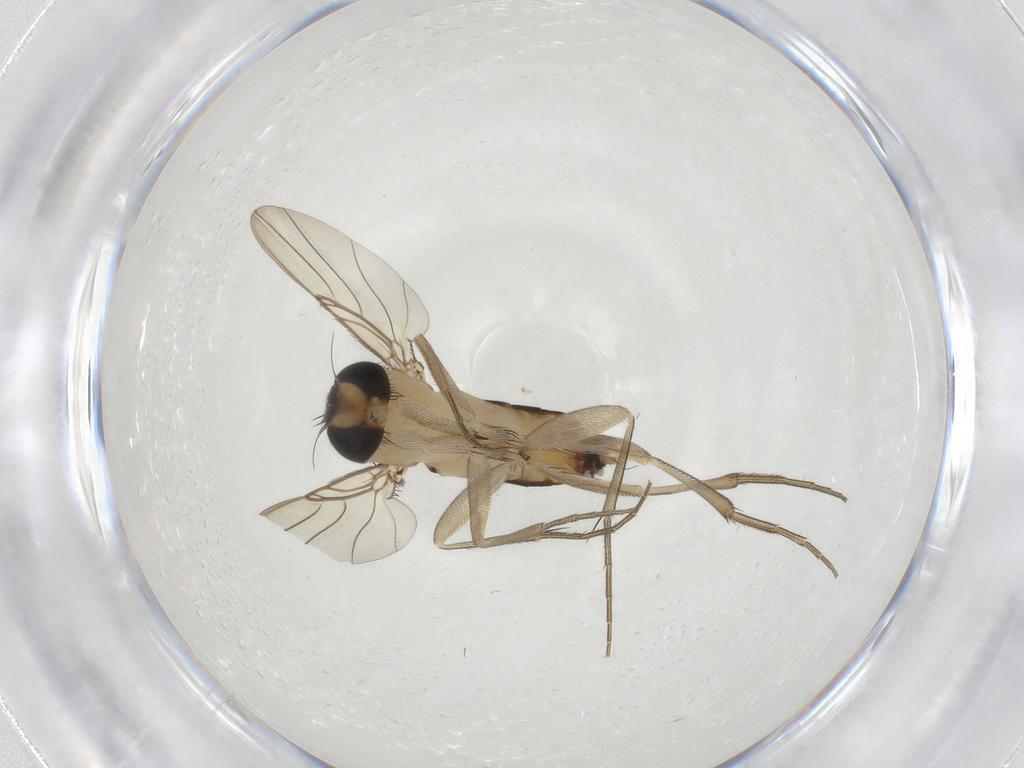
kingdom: Animalia
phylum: Arthropoda
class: Insecta
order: Diptera
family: Phoridae
